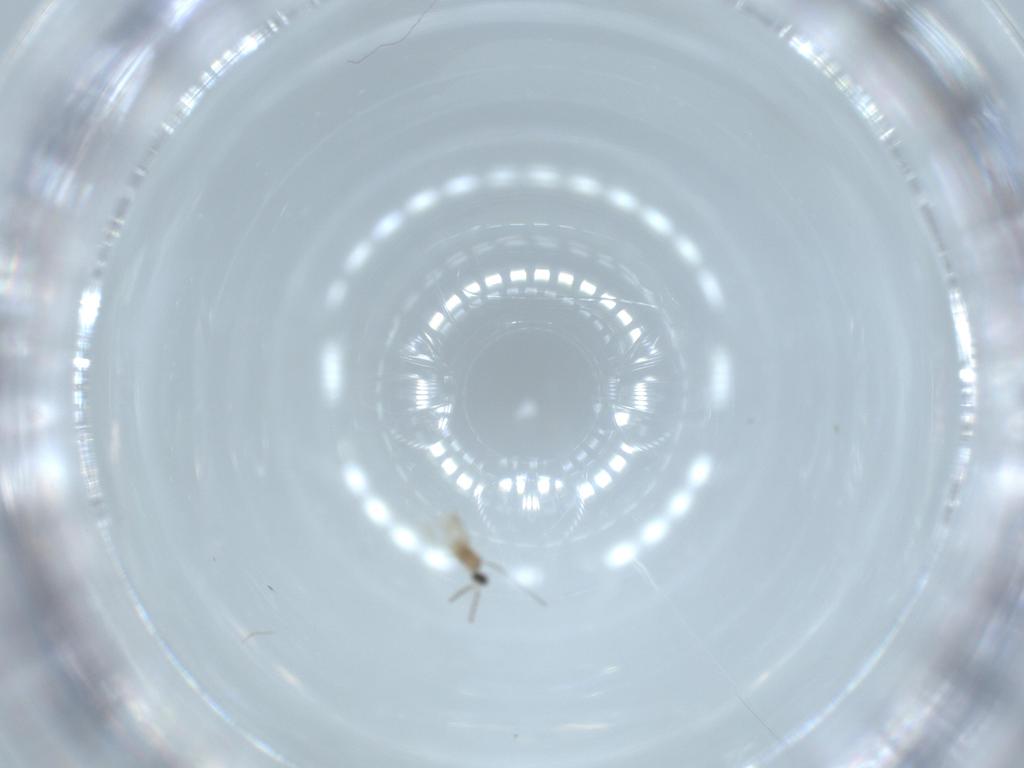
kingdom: Animalia
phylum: Arthropoda
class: Insecta
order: Diptera
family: Cecidomyiidae
